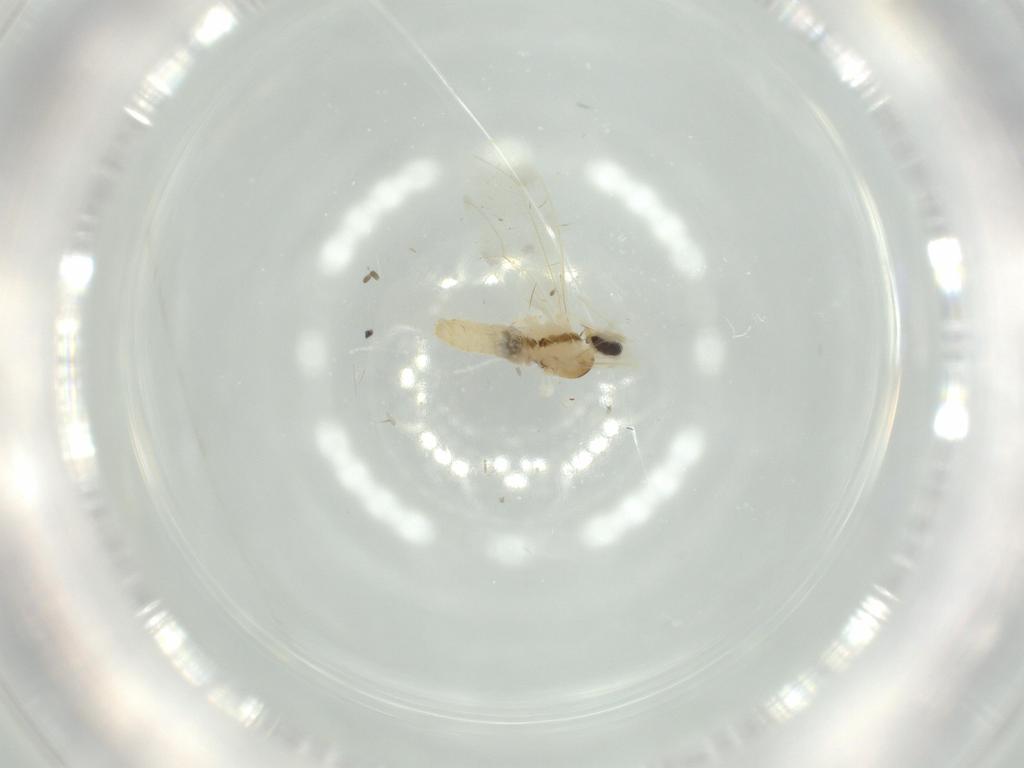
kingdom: Animalia
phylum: Arthropoda
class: Insecta
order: Diptera
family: Cecidomyiidae
